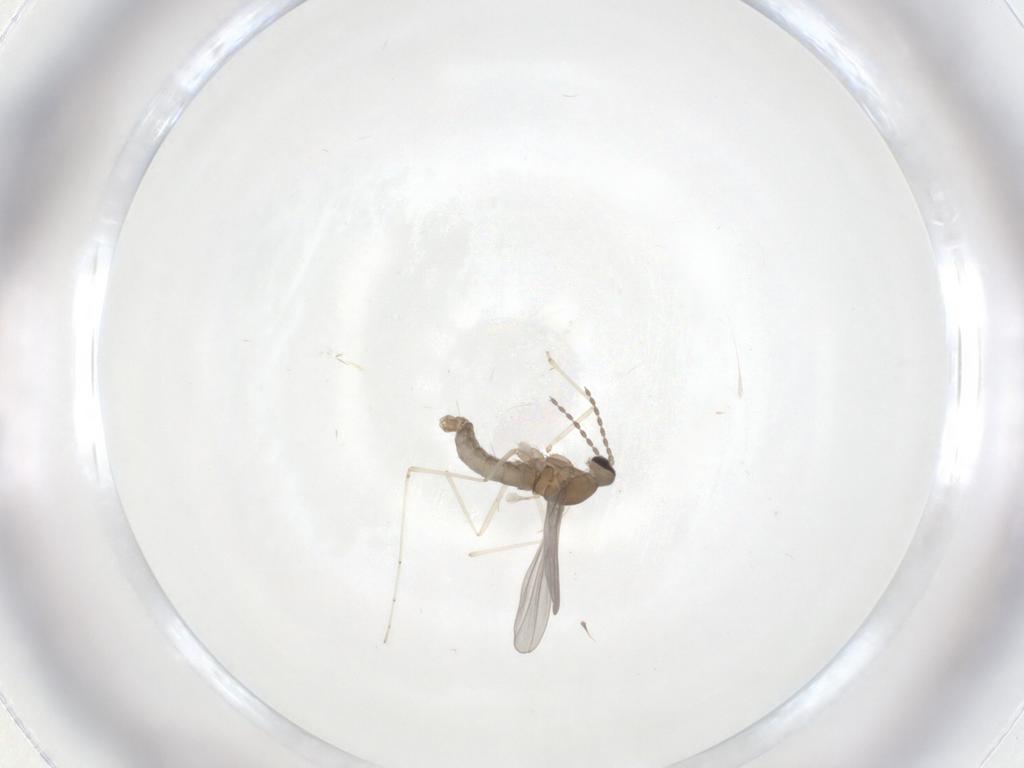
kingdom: Animalia
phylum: Arthropoda
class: Insecta
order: Diptera
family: Cecidomyiidae
